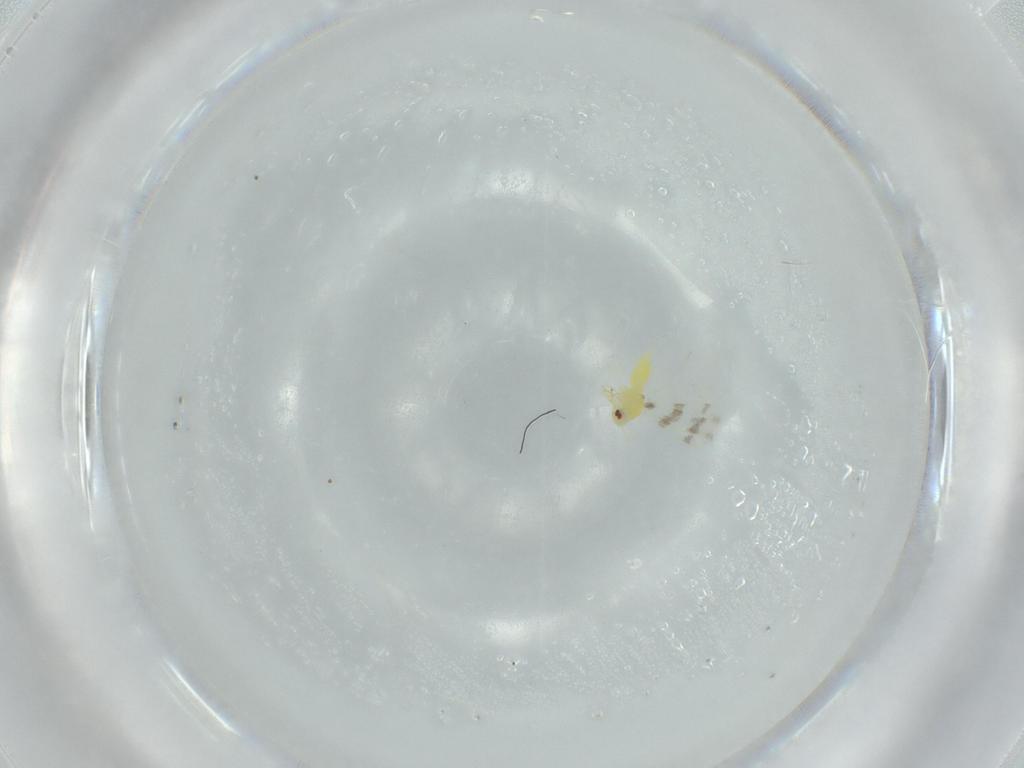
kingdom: Animalia
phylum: Arthropoda
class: Insecta
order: Hemiptera
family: Aleyrodidae
